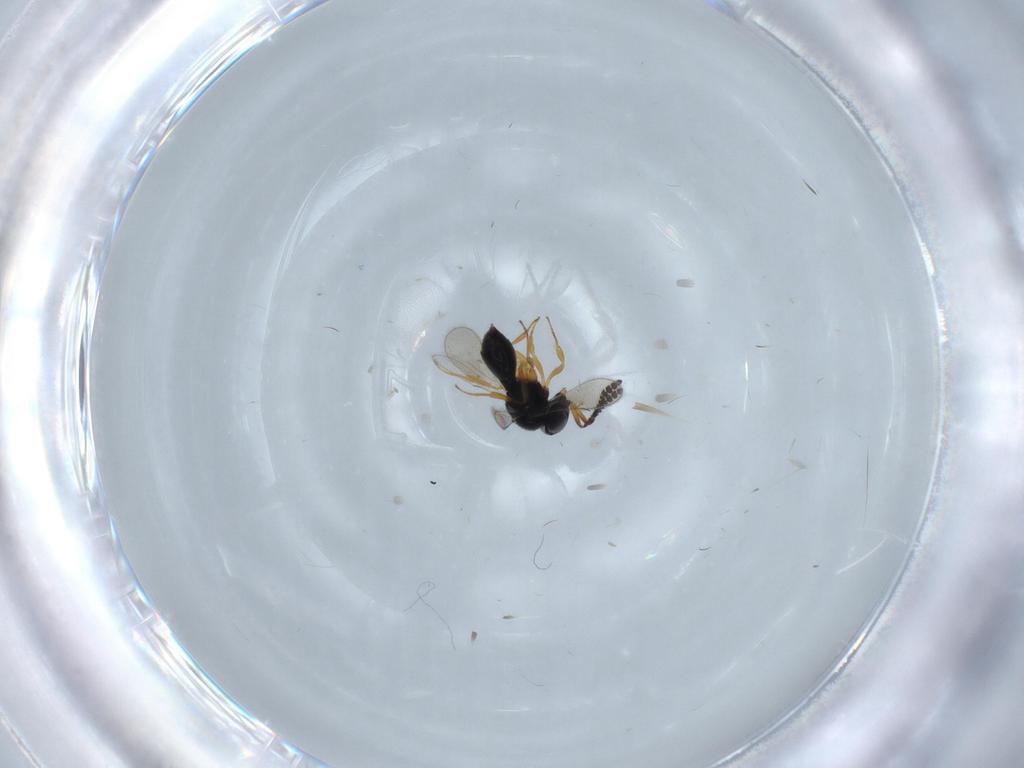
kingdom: Animalia
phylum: Arthropoda
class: Insecta
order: Hymenoptera
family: Scelionidae
